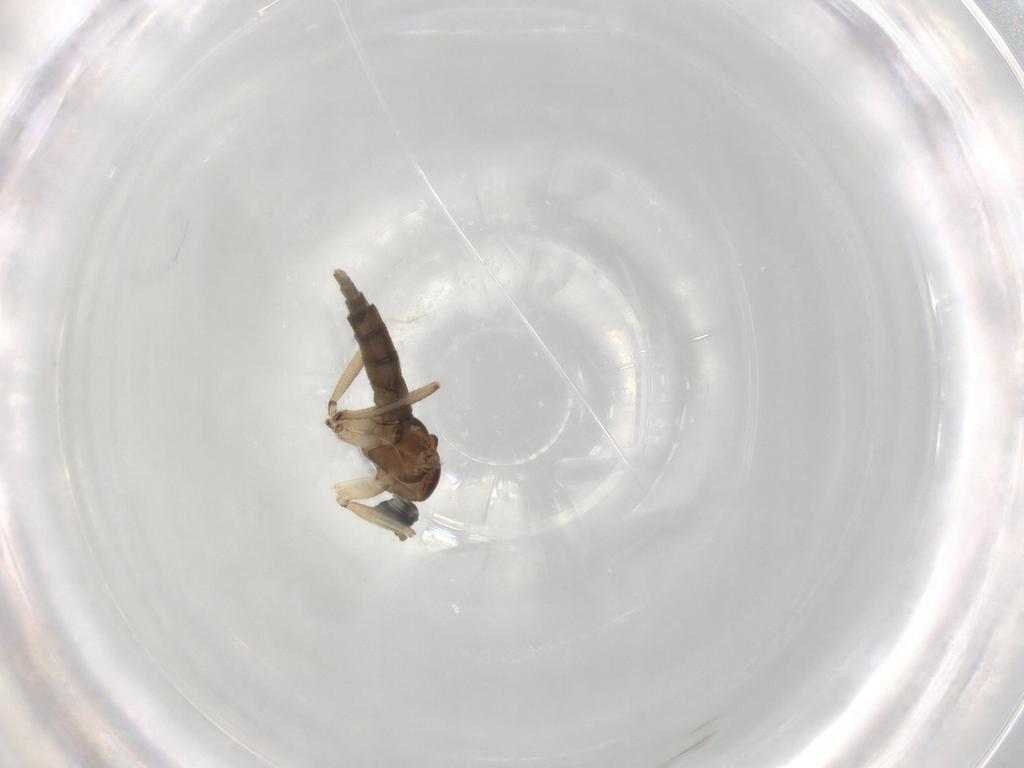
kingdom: Animalia
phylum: Arthropoda
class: Insecta
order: Diptera
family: Sciaridae
